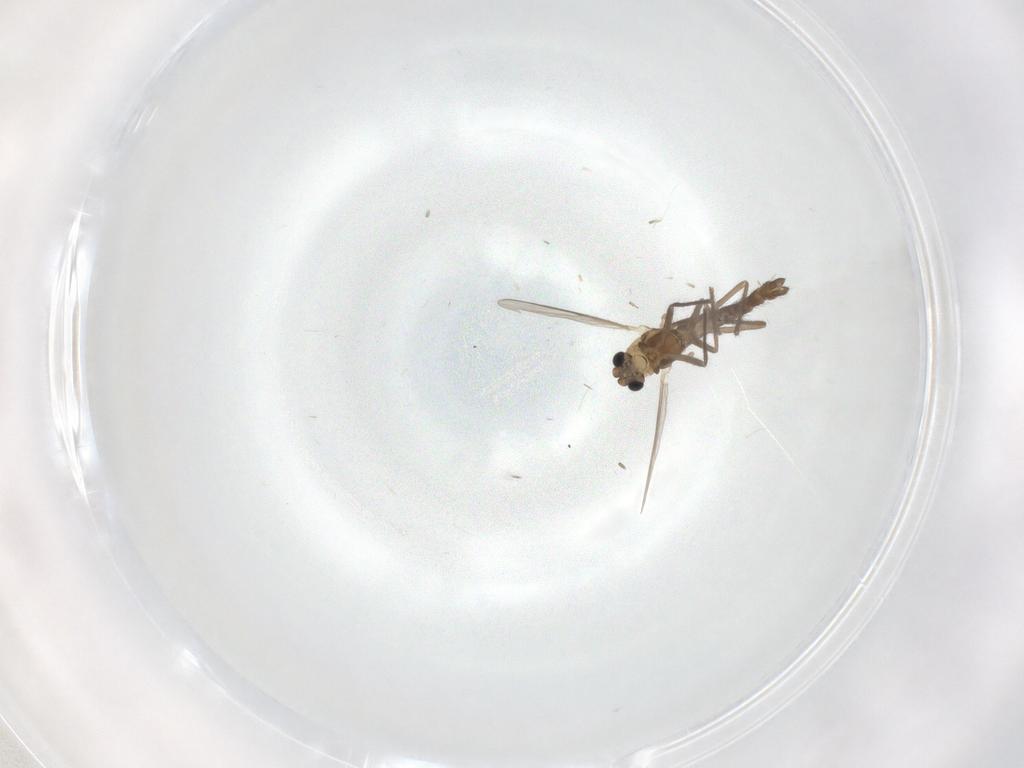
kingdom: Animalia
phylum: Arthropoda
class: Insecta
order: Diptera
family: Chironomidae
